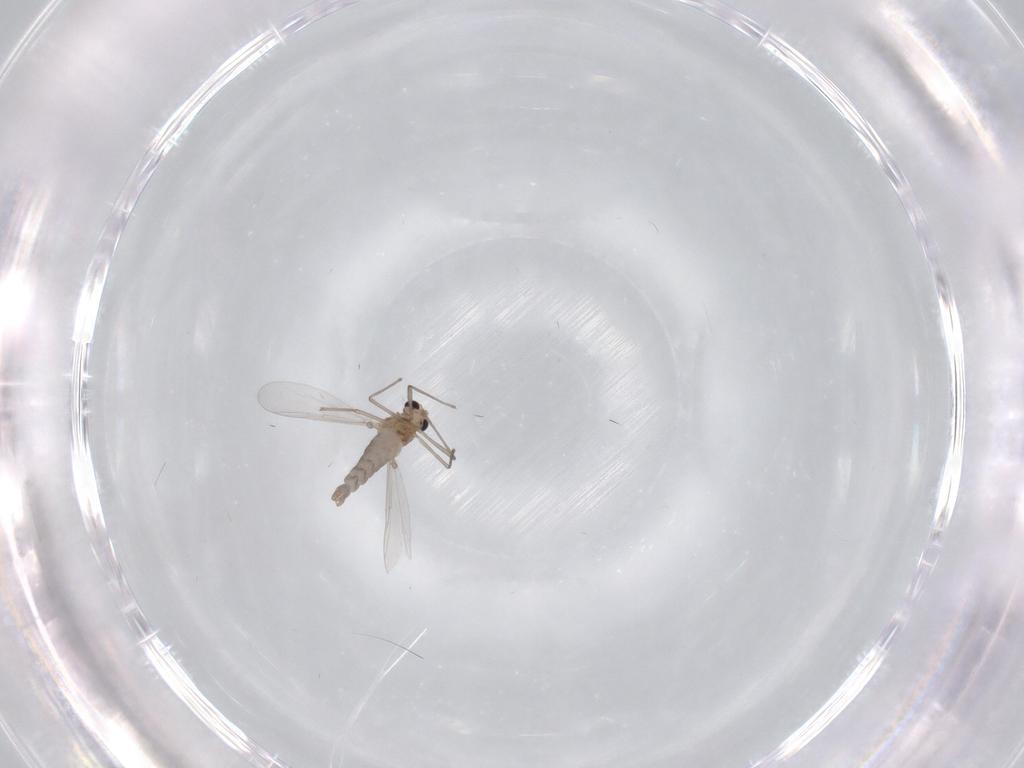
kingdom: Animalia
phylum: Arthropoda
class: Insecta
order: Diptera
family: Chironomidae
